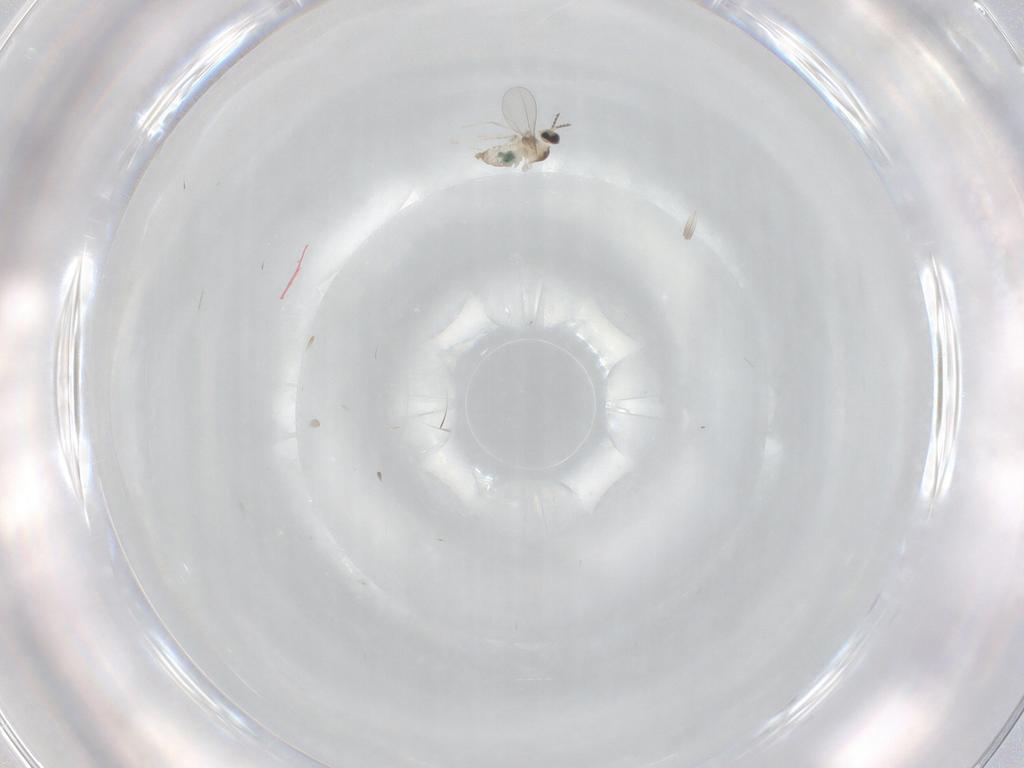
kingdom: Animalia
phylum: Arthropoda
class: Insecta
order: Diptera
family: Cecidomyiidae
